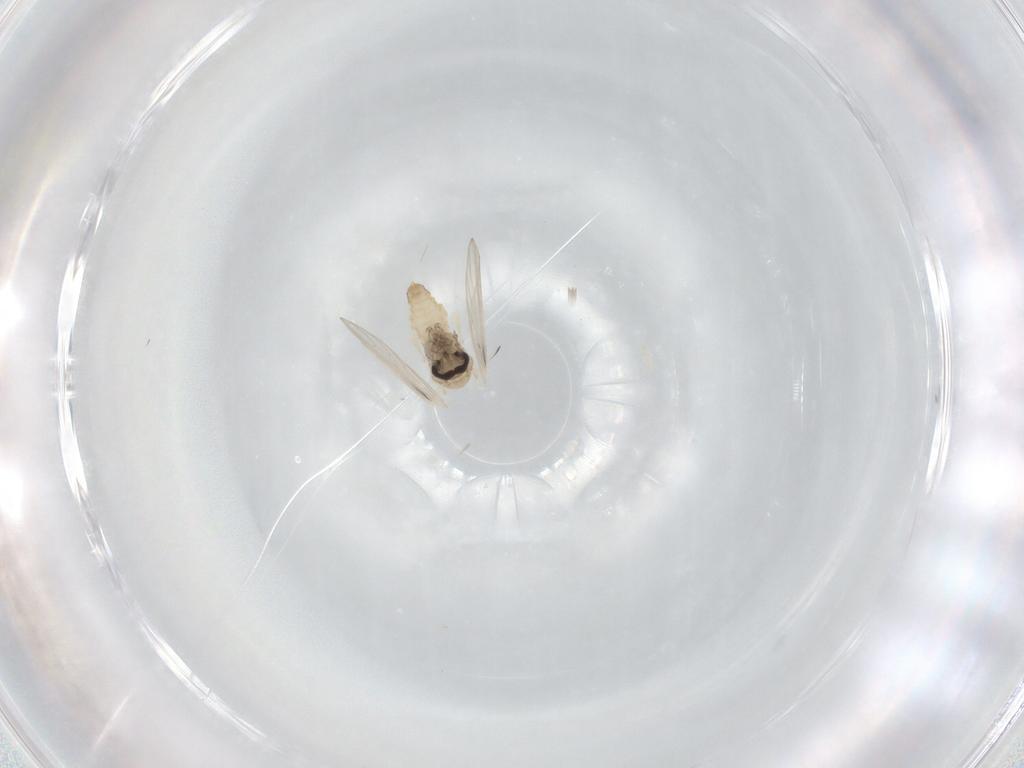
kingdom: Animalia
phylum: Arthropoda
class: Insecta
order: Diptera
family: Psychodidae
